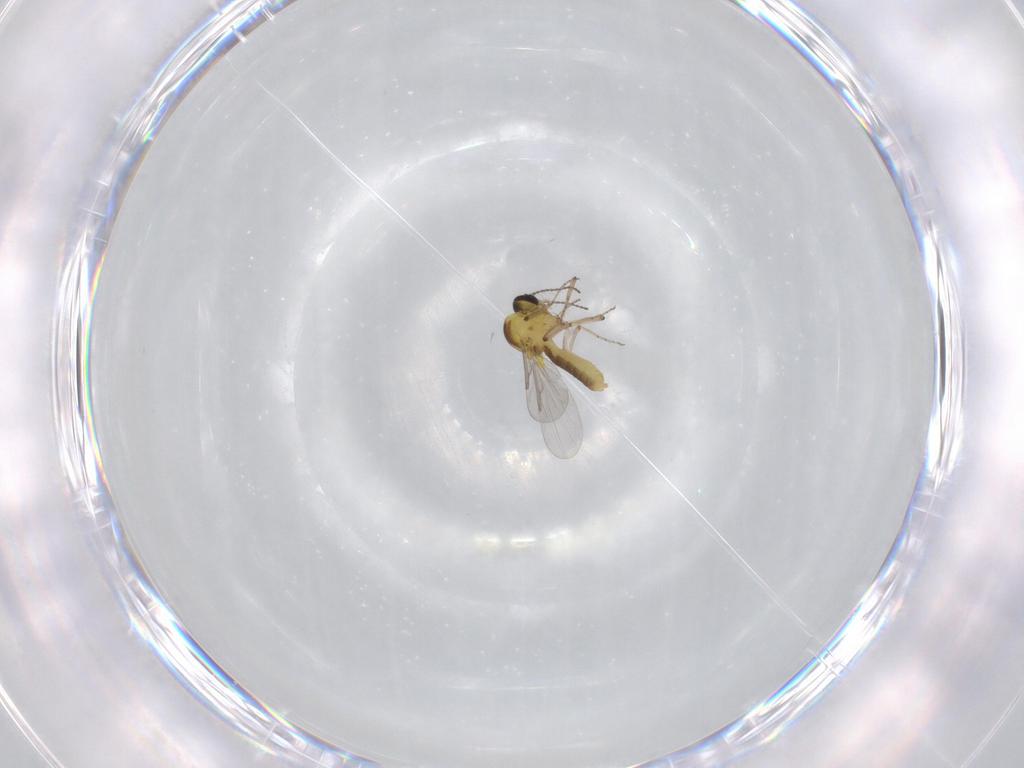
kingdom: Animalia
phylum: Arthropoda
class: Insecta
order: Diptera
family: Ceratopogonidae
